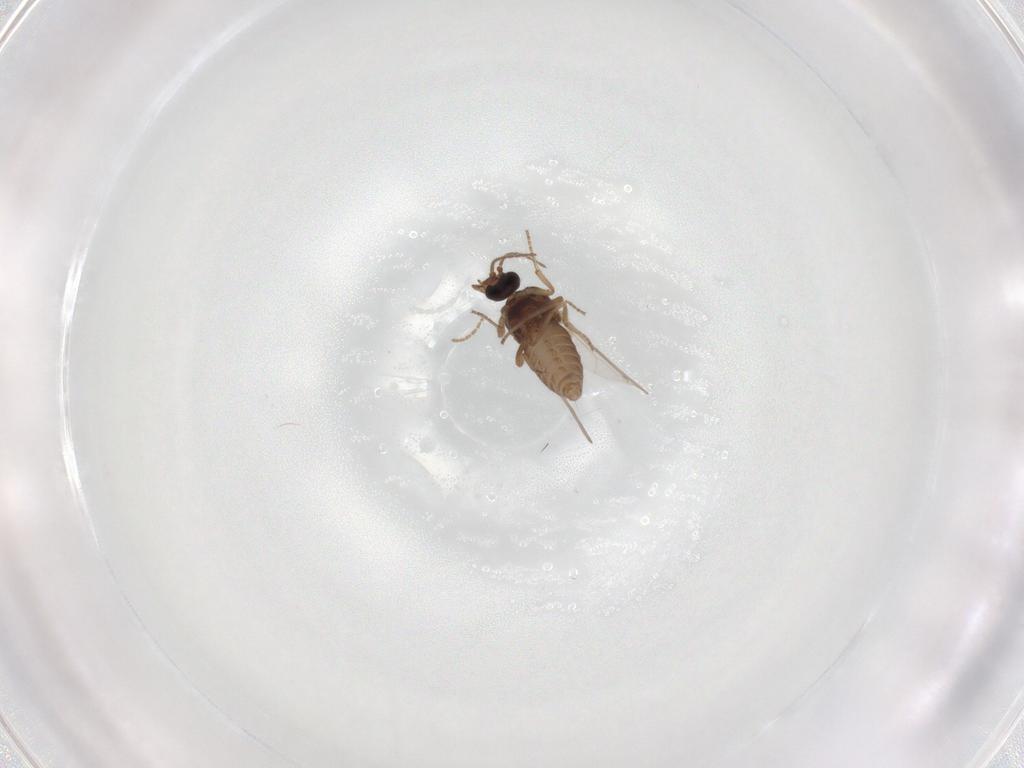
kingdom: Animalia
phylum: Arthropoda
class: Insecta
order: Diptera
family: Ceratopogonidae
